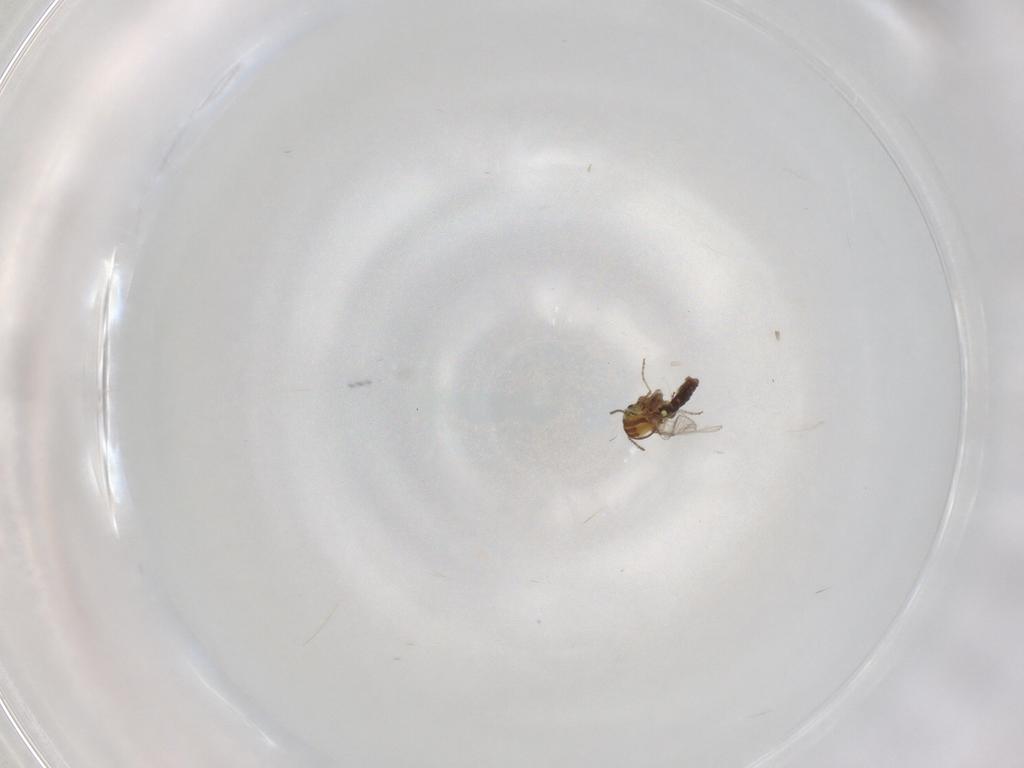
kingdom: Animalia
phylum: Arthropoda
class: Insecta
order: Diptera
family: Ceratopogonidae
